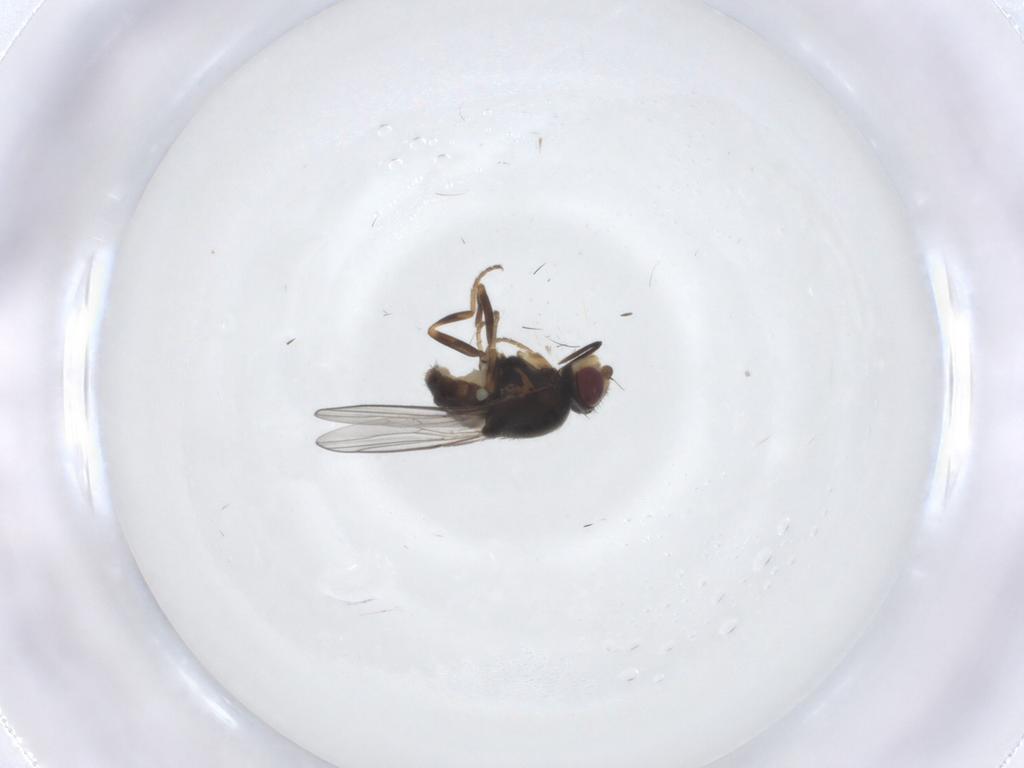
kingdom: Animalia
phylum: Arthropoda
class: Insecta
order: Diptera
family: Chloropidae
